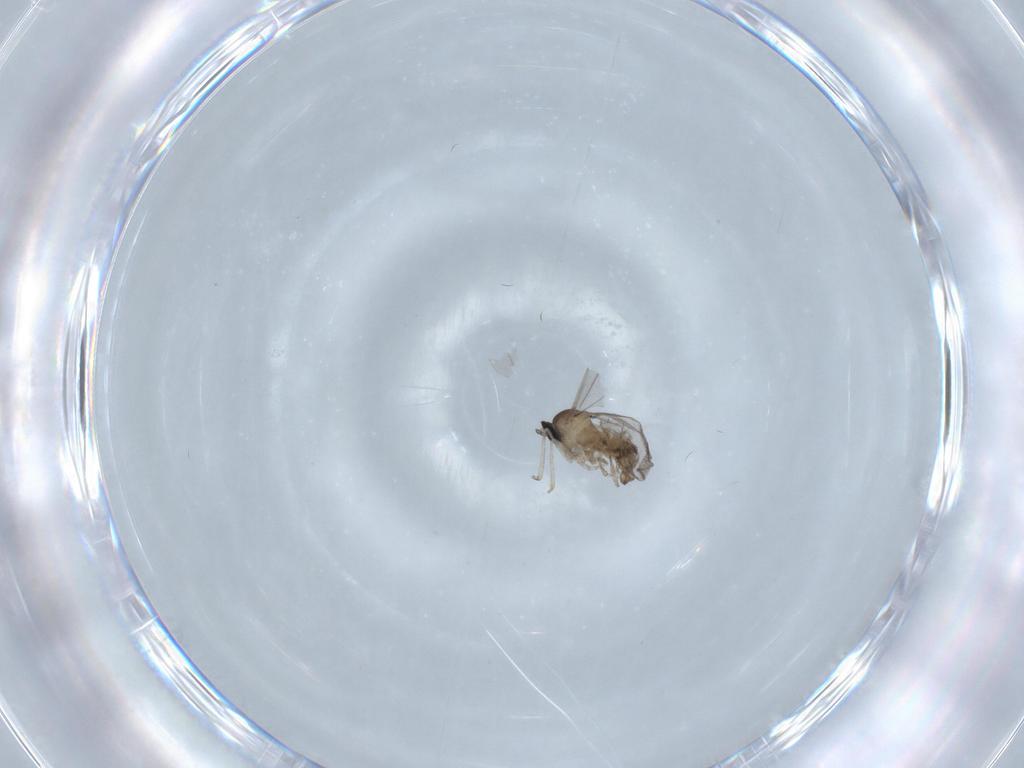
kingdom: Animalia
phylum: Arthropoda
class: Insecta
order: Diptera
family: Cecidomyiidae
